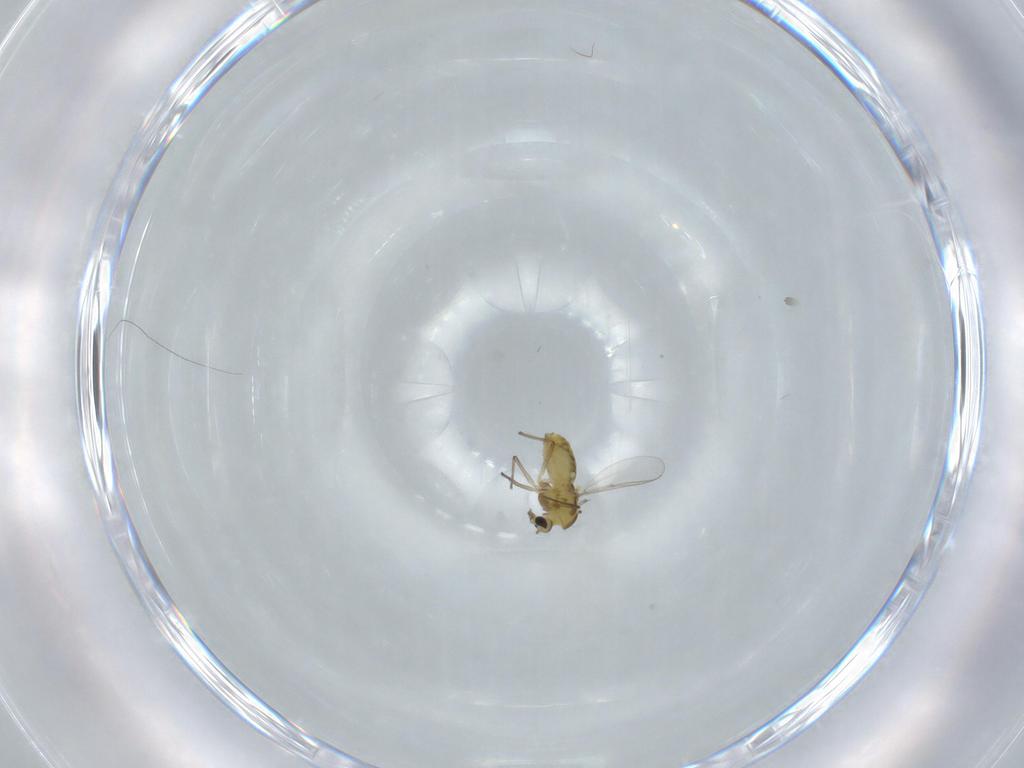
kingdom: Animalia
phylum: Arthropoda
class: Insecta
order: Diptera
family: Chironomidae
